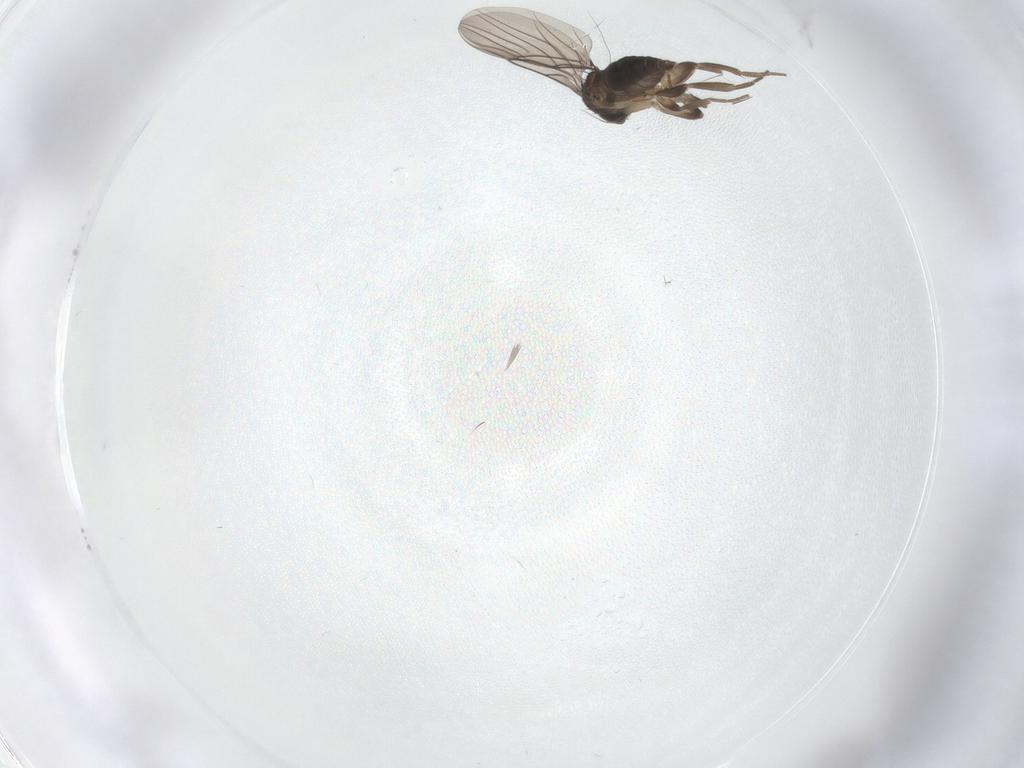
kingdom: Animalia
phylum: Arthropoda
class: Insecta
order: Diptera
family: Phoridae
